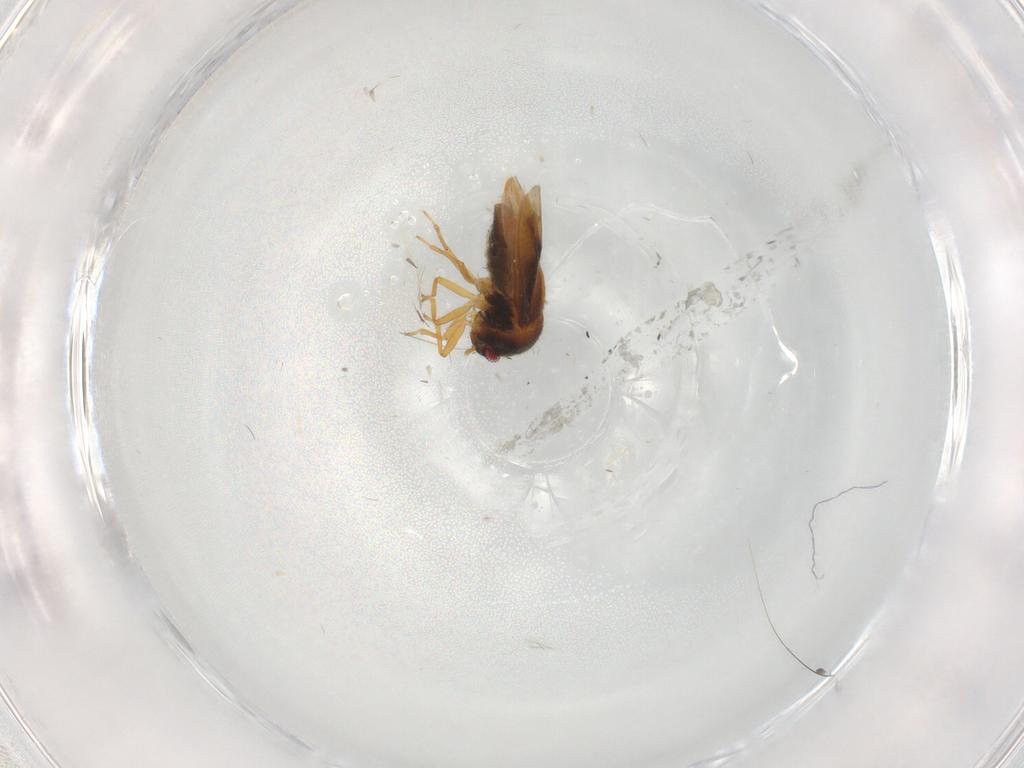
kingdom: Animalia
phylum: Arthropoda
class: Insecta
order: Hemiptera
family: Schizopteridae
